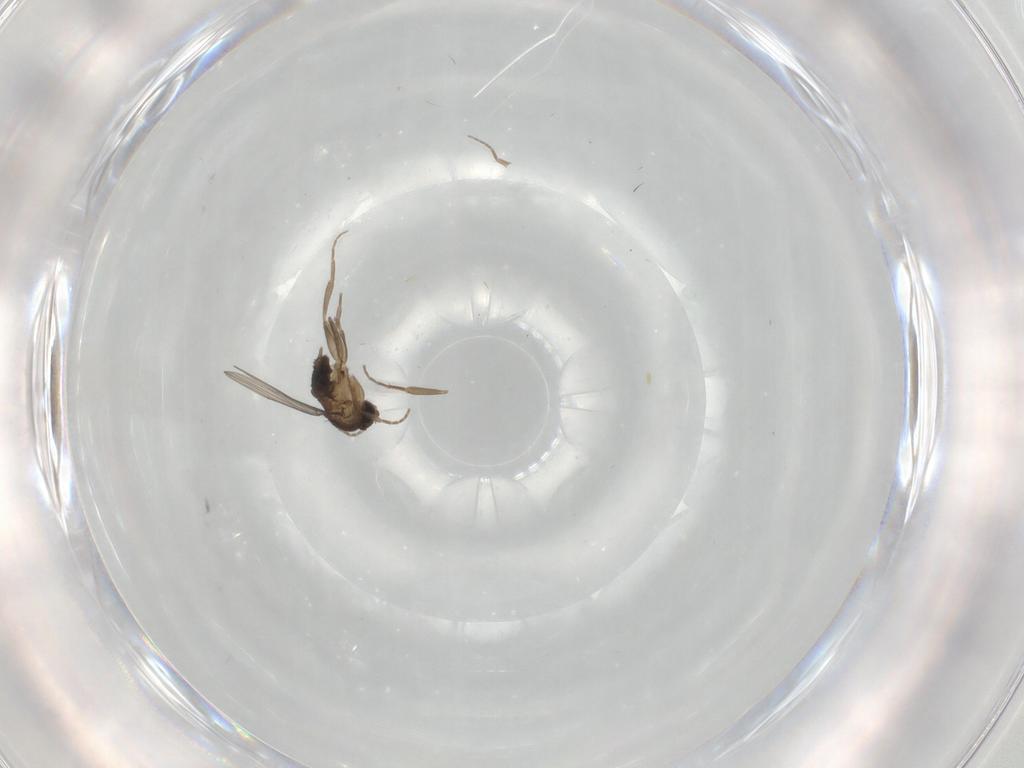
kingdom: Animalia
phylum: Arthropoda
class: Insecta
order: Diptera
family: Phoridae
